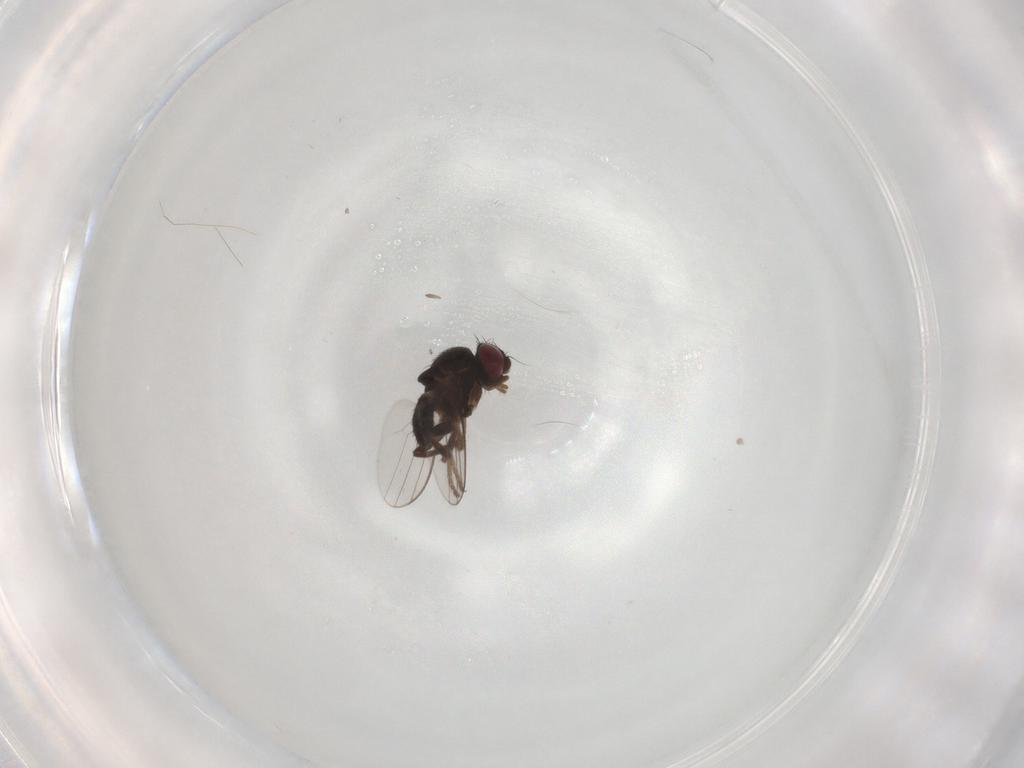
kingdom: Animalia
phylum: Arthropoda
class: Insecta
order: Diptera
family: Milichiidae
